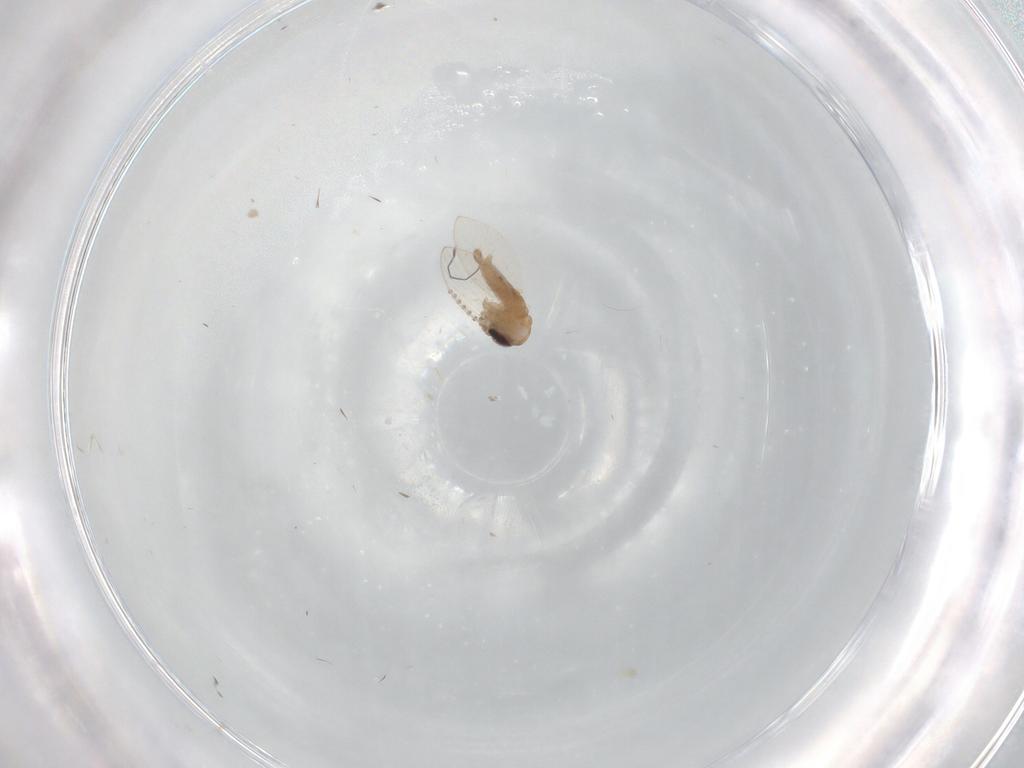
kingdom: Animalia
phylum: Arthropoda
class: Insecta
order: Diptera
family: Psychodidae
